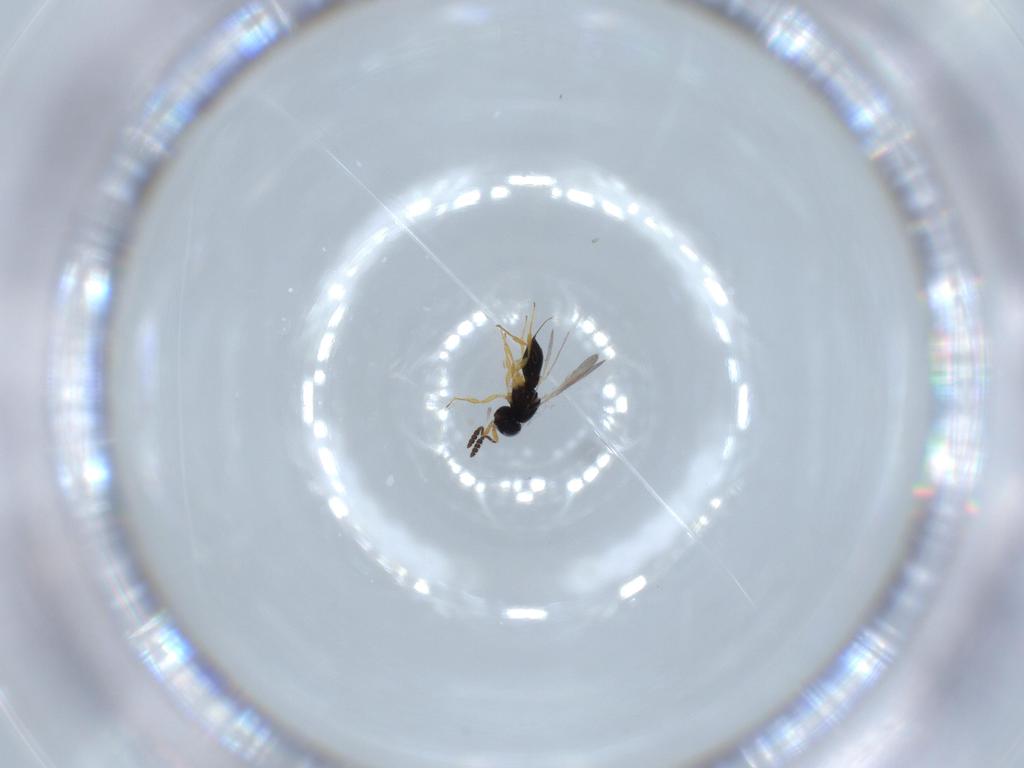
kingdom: Animalia
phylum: Arthropoda
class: Insecta
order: Hymenoptera
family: Scelionidae
